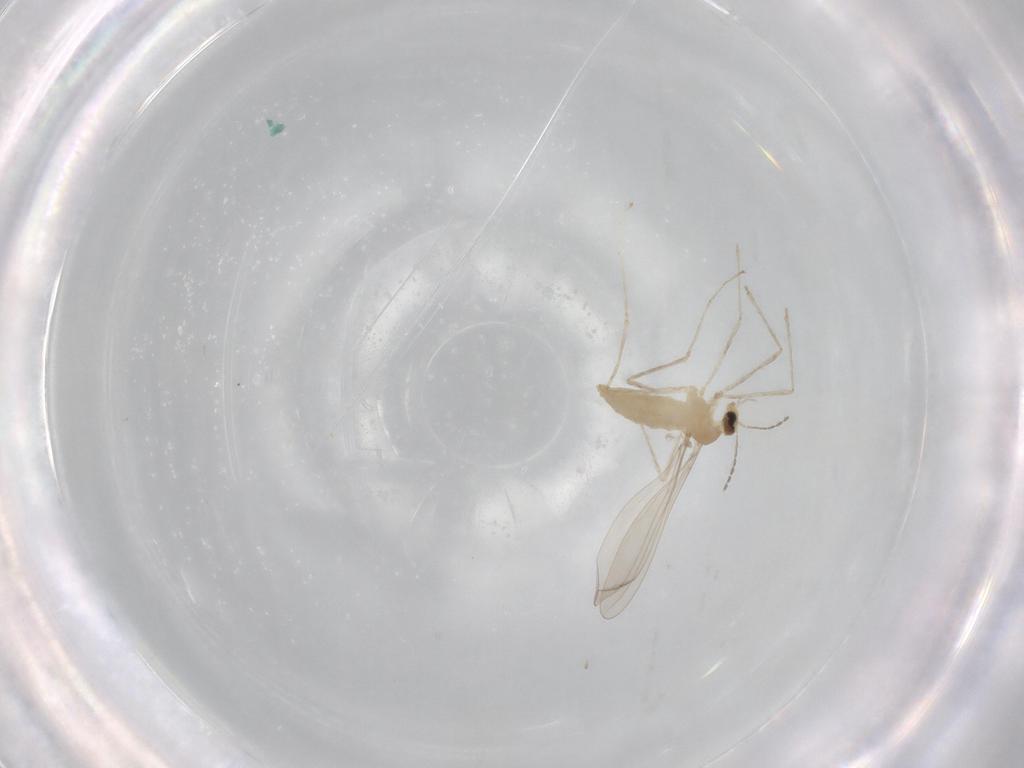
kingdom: Animalia
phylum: Arthropoda
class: Insecta
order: Diptera
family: Cecidomyiidae
